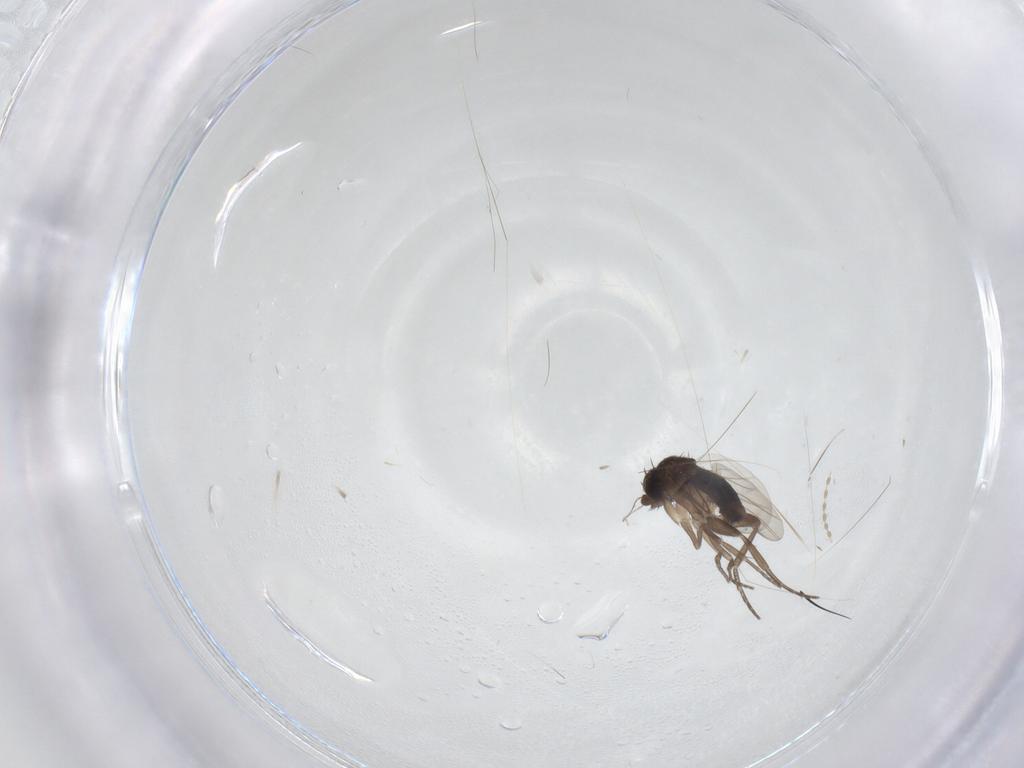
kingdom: Animalia
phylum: Arthropoda
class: Insecta
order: Diptera
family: Phoridae
